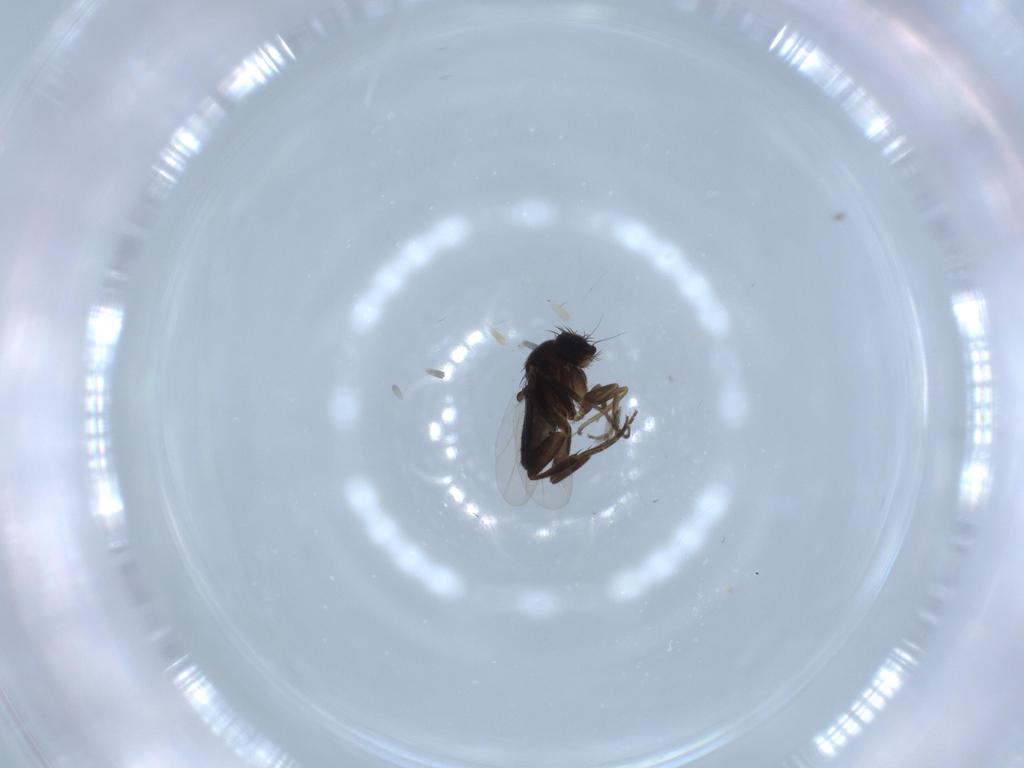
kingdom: Animalia
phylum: Arthropoda
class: Insecta
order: Diptera
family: Phoridae
